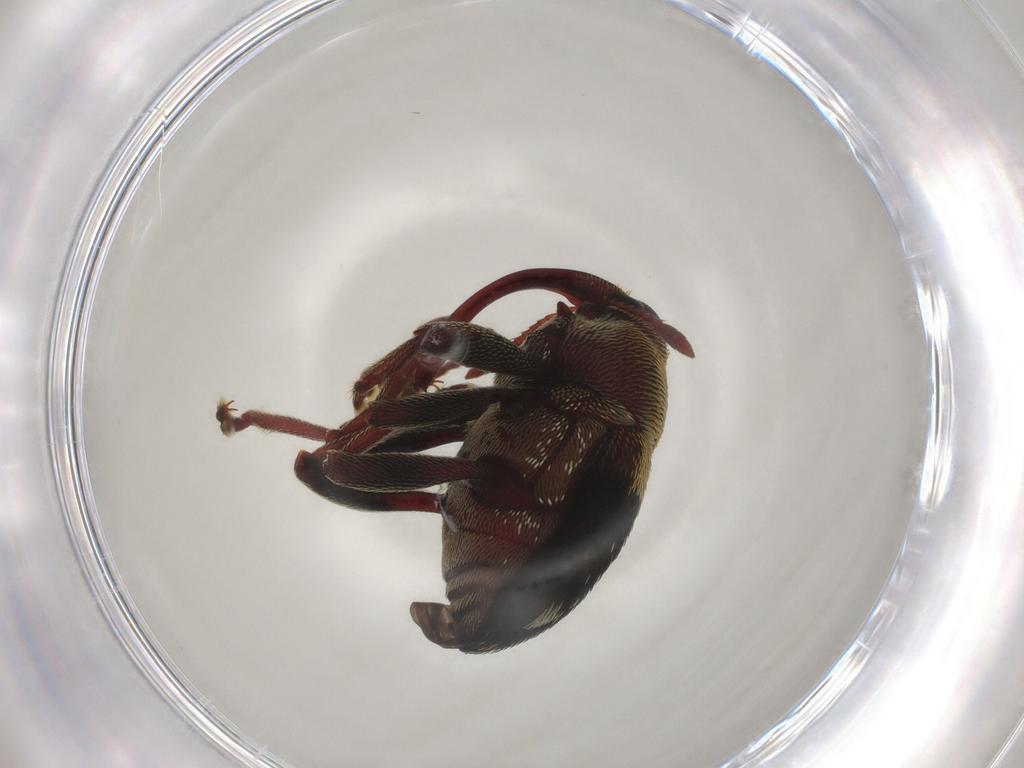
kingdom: Animalia
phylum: Arthropoda
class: Insecta
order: Coleoptera
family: Curculionidae
